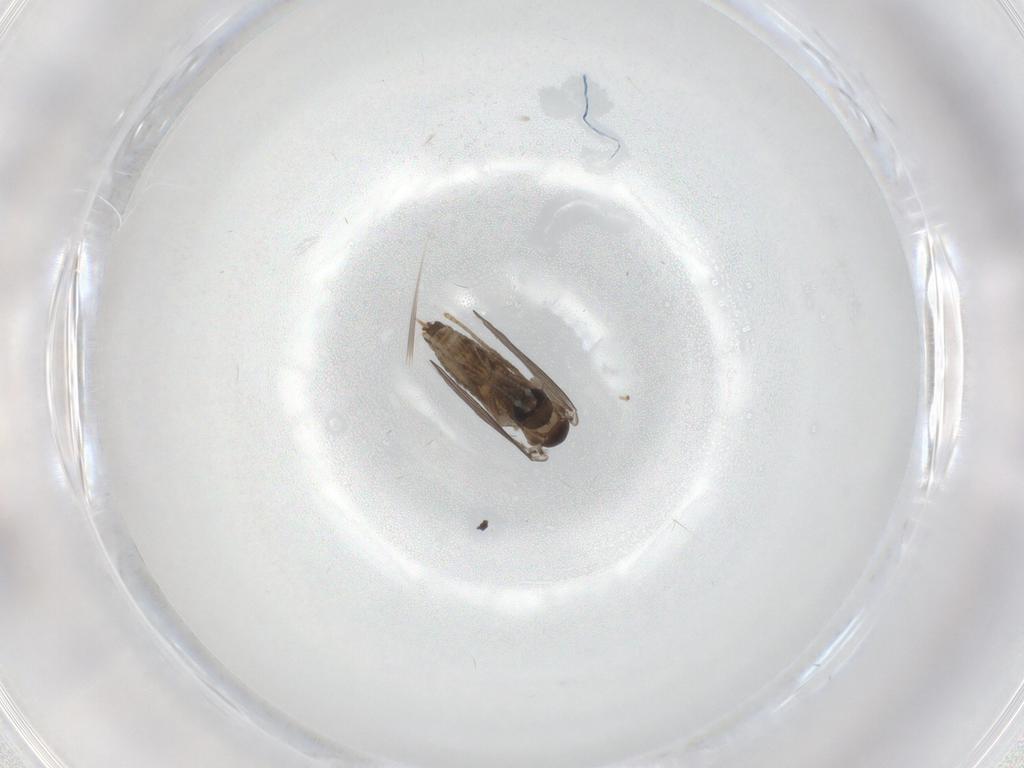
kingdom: Animalia
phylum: Arthropoda
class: Insecta
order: Diptera
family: Psychodidae
